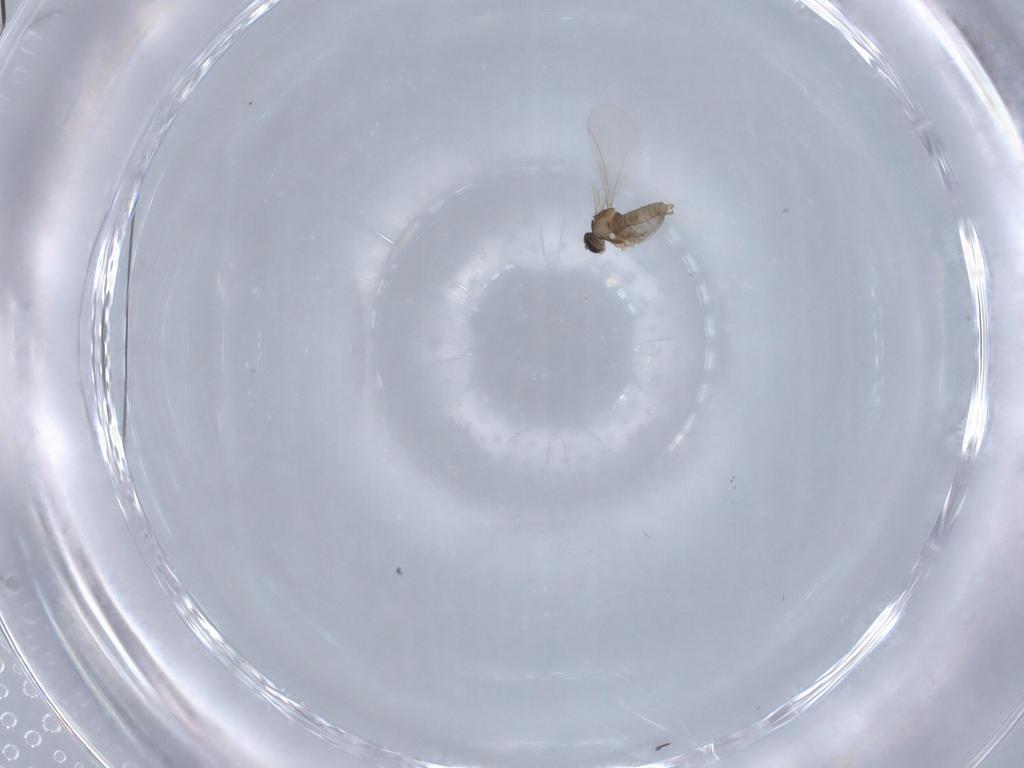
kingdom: Animalia
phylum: Arthropoda
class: Insecta
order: Diptera
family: Cecidomyiidae
